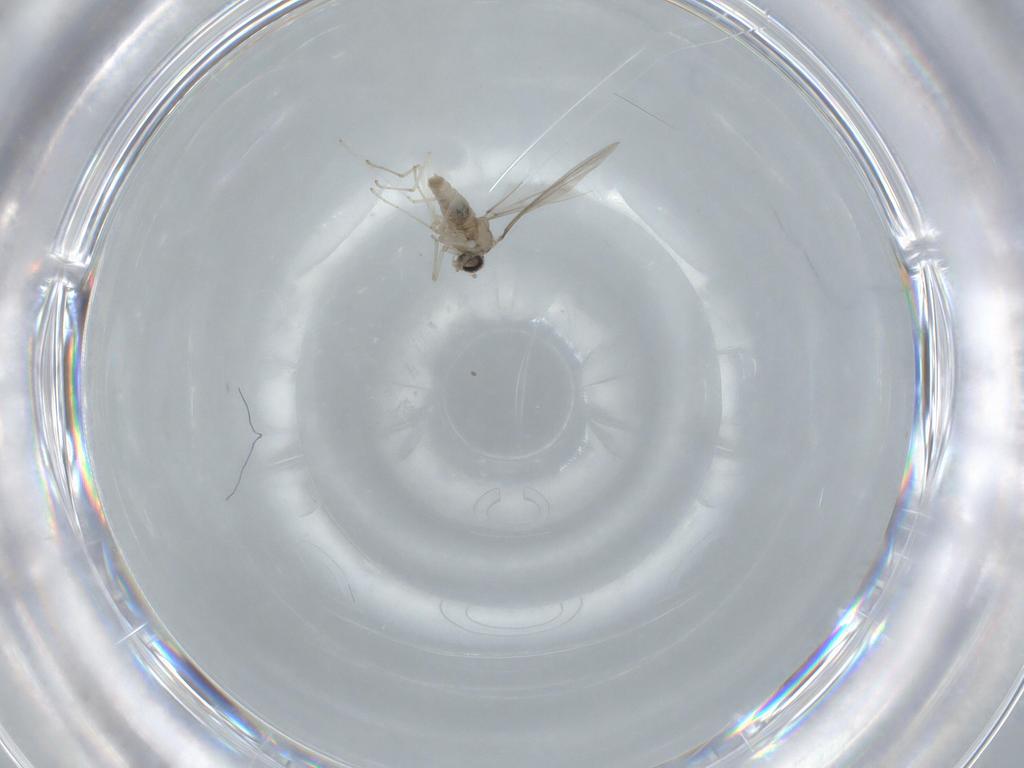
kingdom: Animalia
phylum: Arthropoda
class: Insecta
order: Diptera
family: Cecidomyiidae
